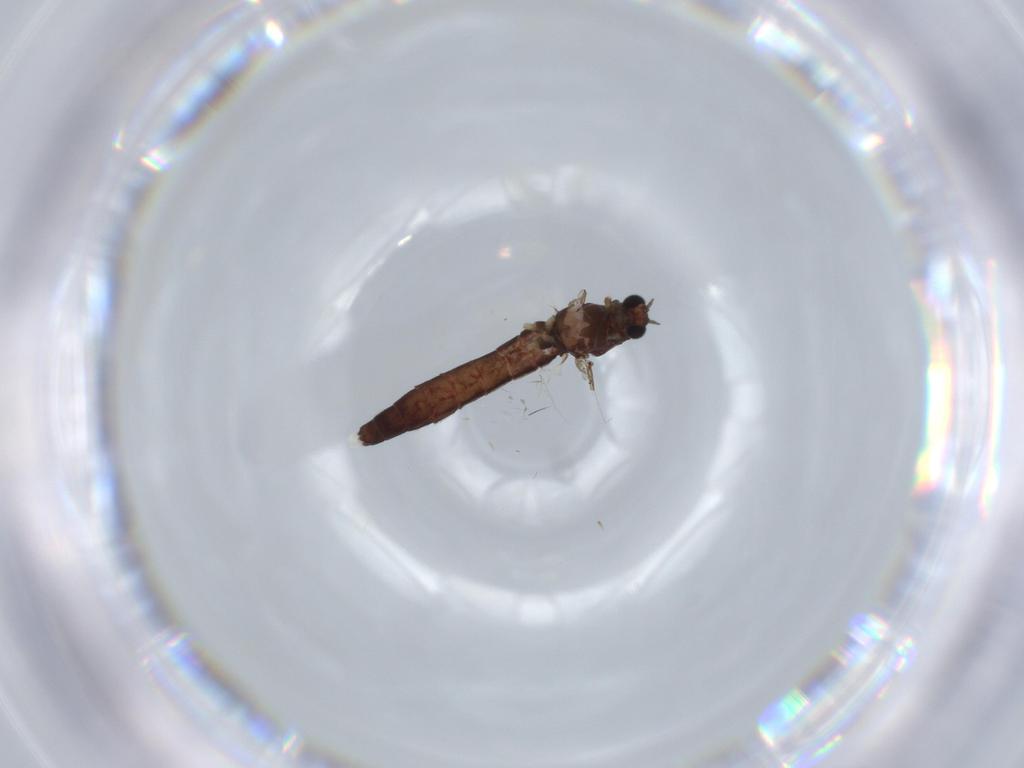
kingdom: Animalia
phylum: Arthropoda
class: Insecta
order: Diptera
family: Chironomidae
